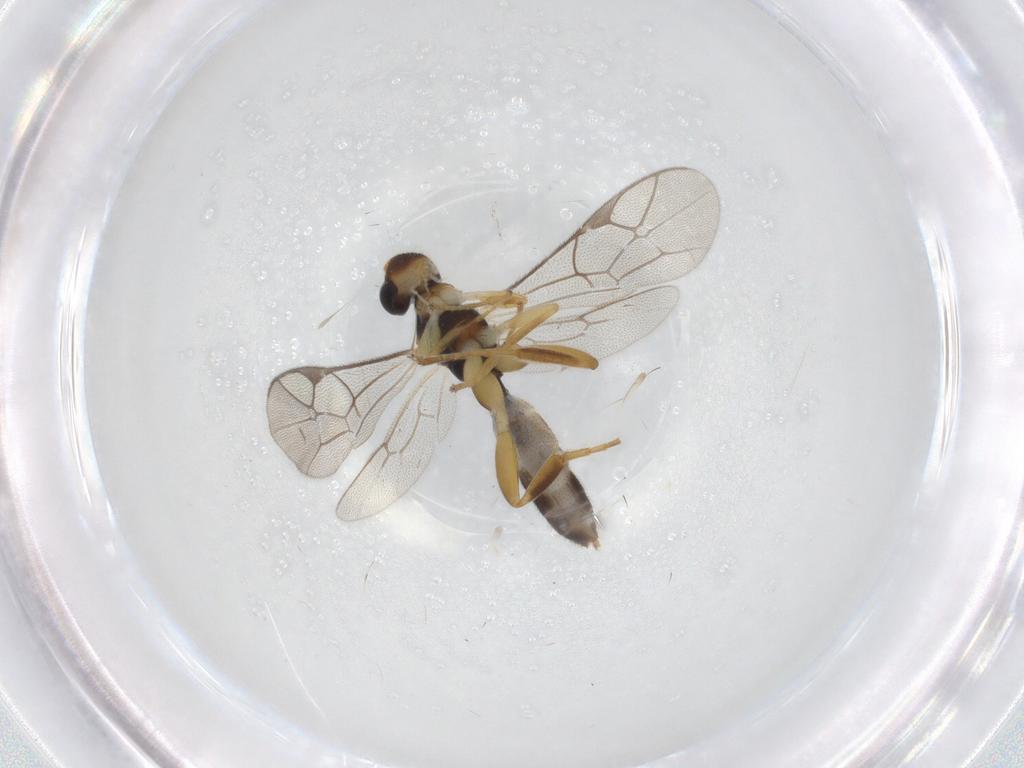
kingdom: Animalia
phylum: Arthropoda
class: Insecta
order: Hymenoptera
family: Ichneumonidae
